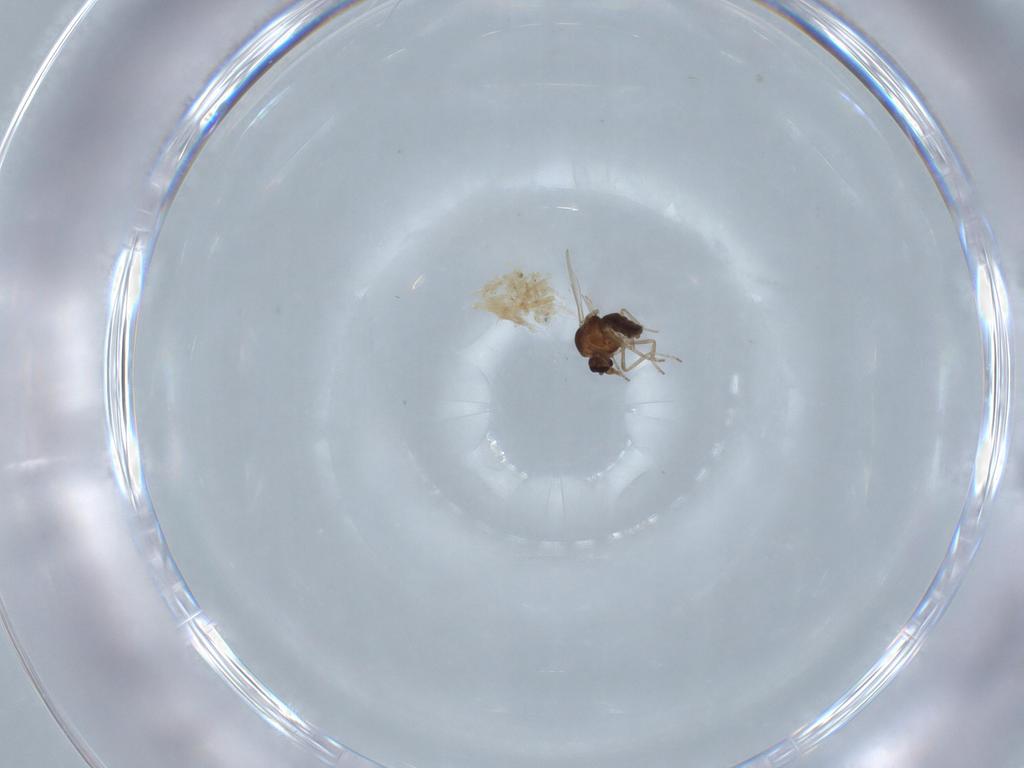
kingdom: Animalia
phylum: Arthropoda
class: Insecta
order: Diptera
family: Ceratopogonidae
